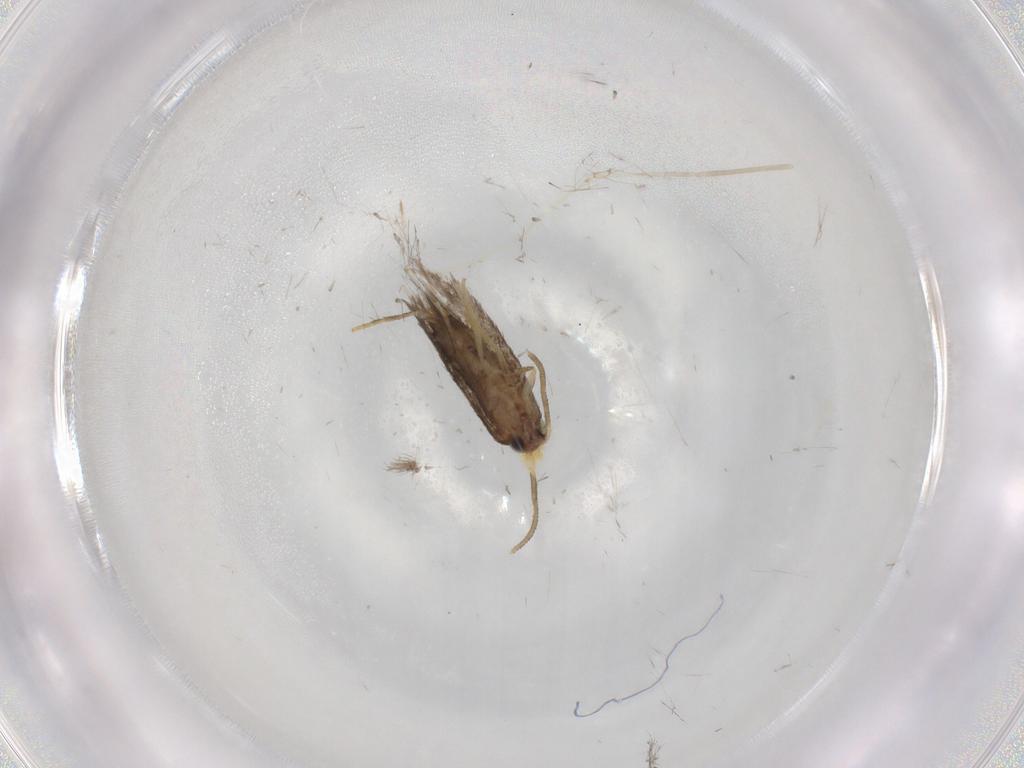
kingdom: Animalia
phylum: Arthropoda
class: Insecta
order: Lepidoptera
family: Nepticulidae
